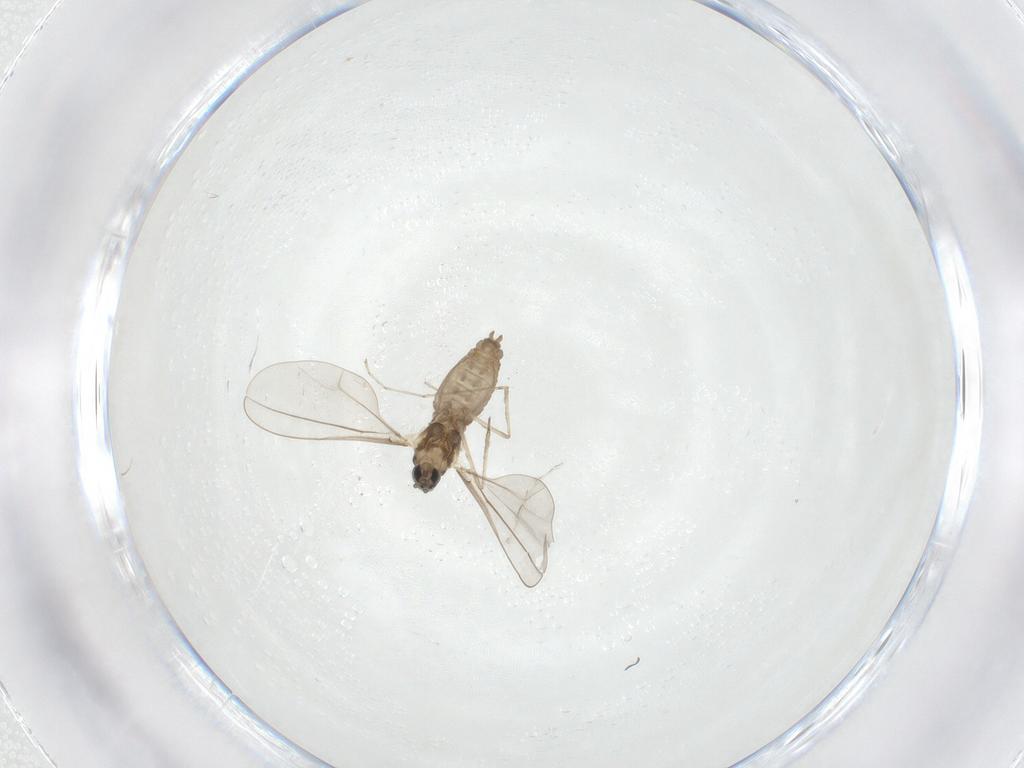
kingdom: Animalia
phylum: Arthropoda
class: Insecta
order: Diptera
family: Cecidomyiidae
